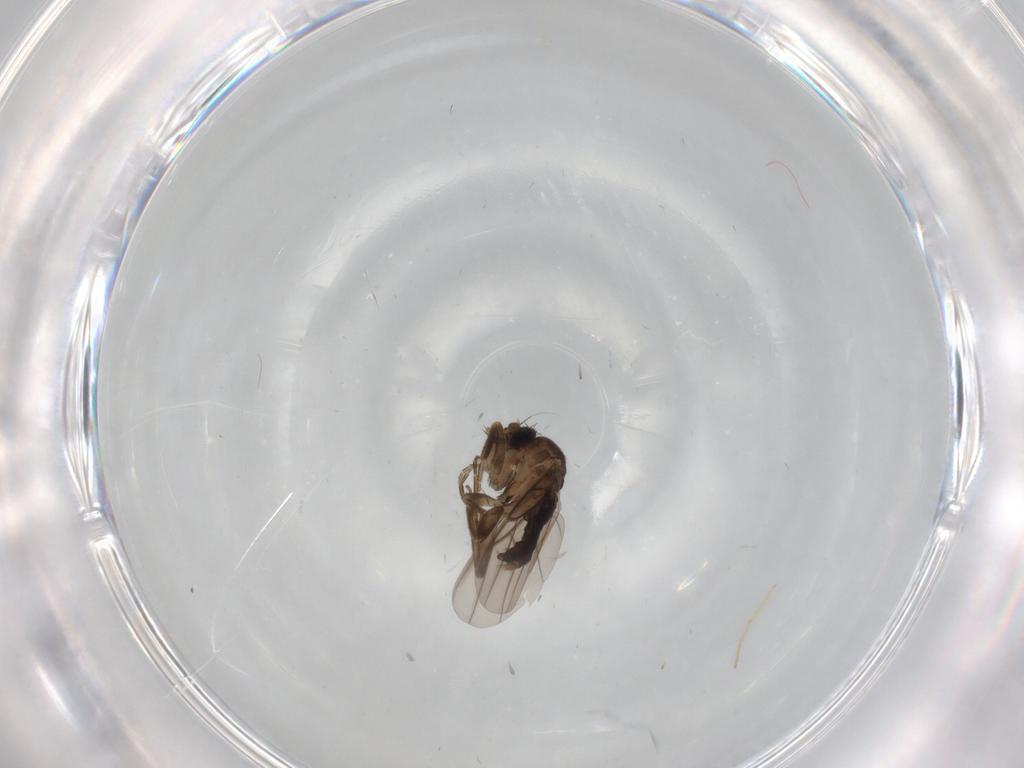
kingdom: Animalia
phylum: Arthropoda
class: Insecta
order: Diptera
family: Chironomidae
